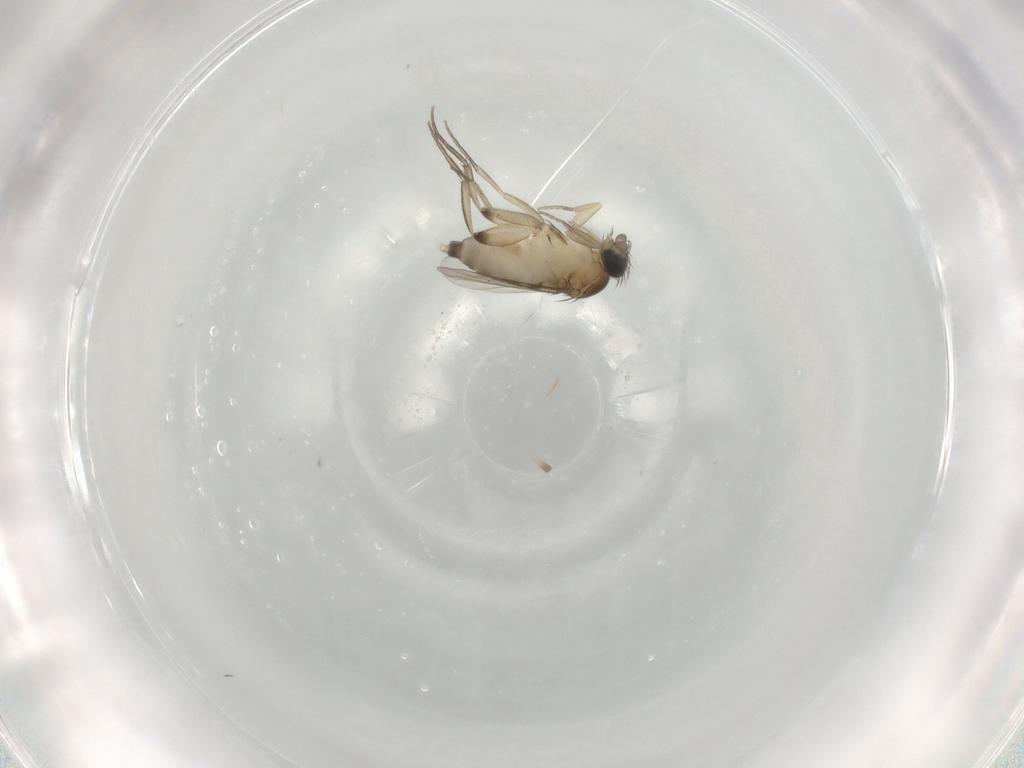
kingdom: Animalia
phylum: Arthropoda
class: Insecta
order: Diptera
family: Phoridae
